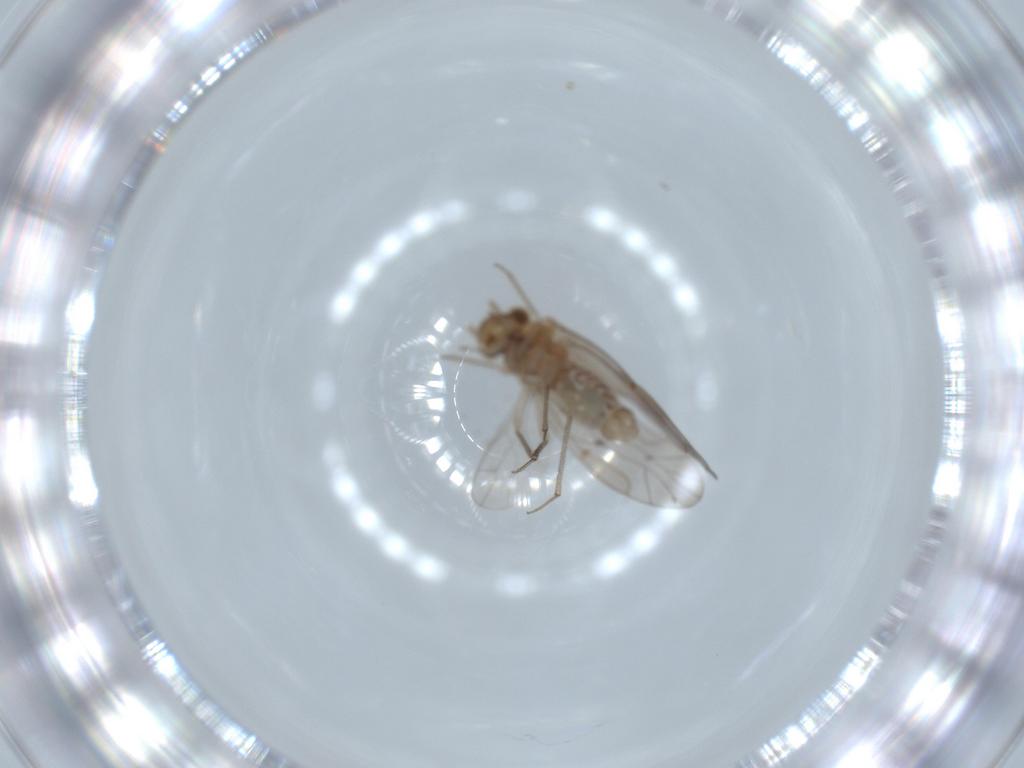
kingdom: Animalia
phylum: Arthropoda
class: Insecta
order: Psocodea
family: Lachesillidae
